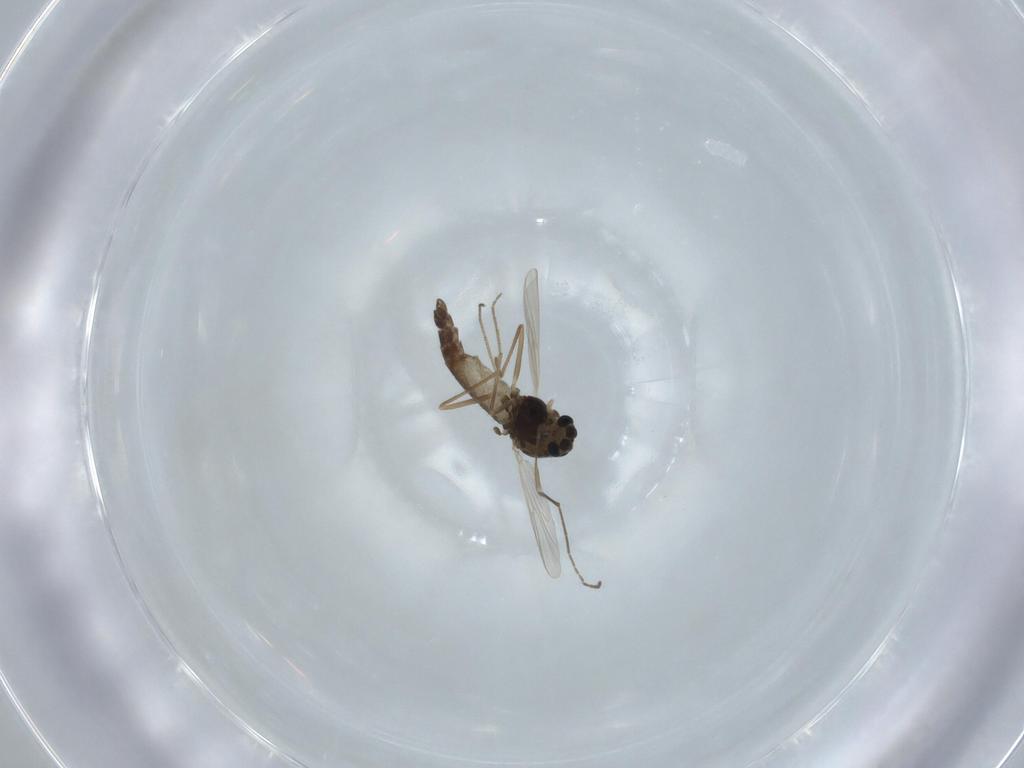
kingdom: Animalia
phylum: Arthropoda
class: Insecta
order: Diptera
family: Chironomidae
